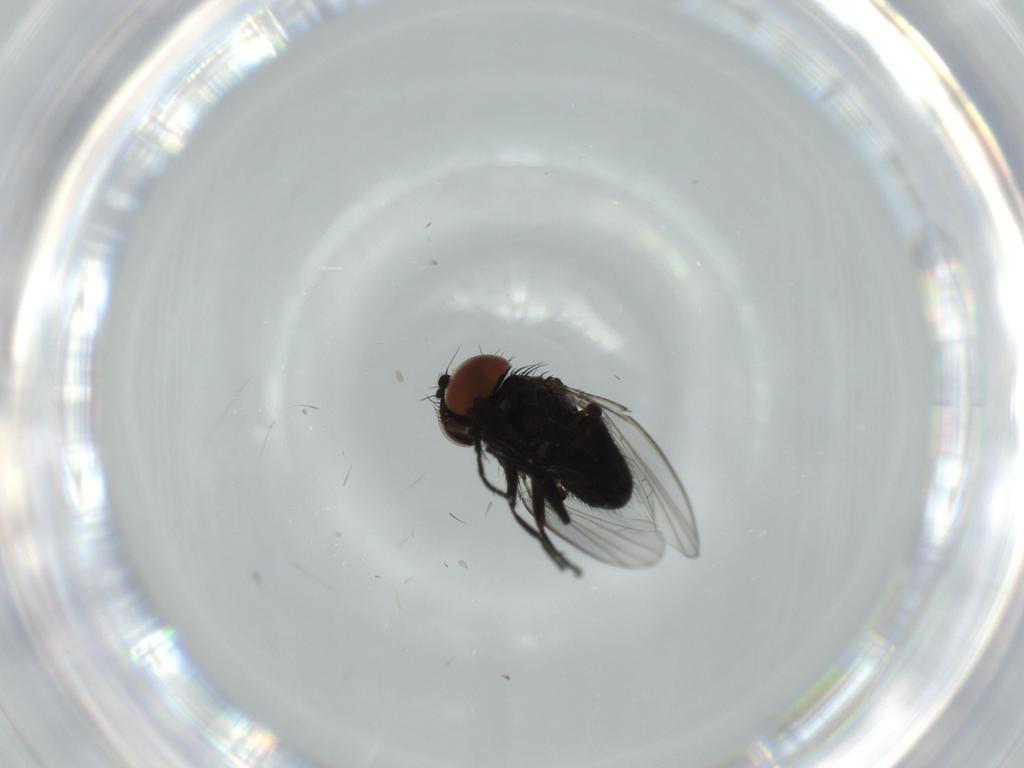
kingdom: Animalia
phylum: Arthropoda
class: Insecta
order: Diptera
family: Milichiidae
